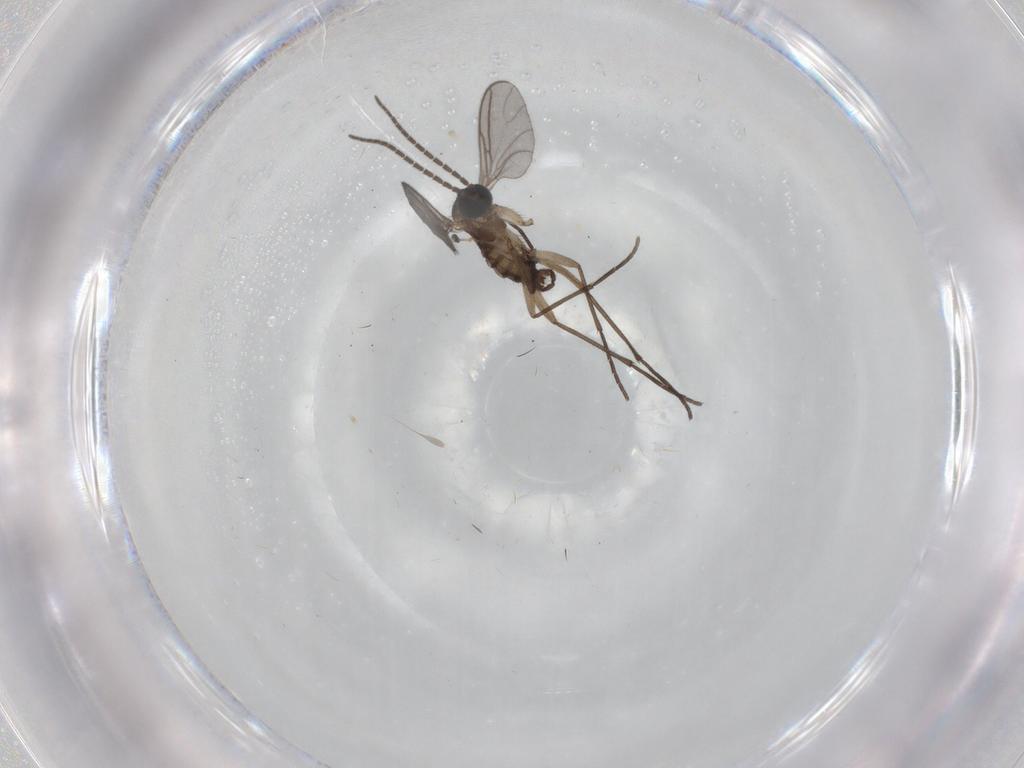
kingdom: Animalia
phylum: Arthropoda
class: Insecta
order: Diptera
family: Sciaridae
